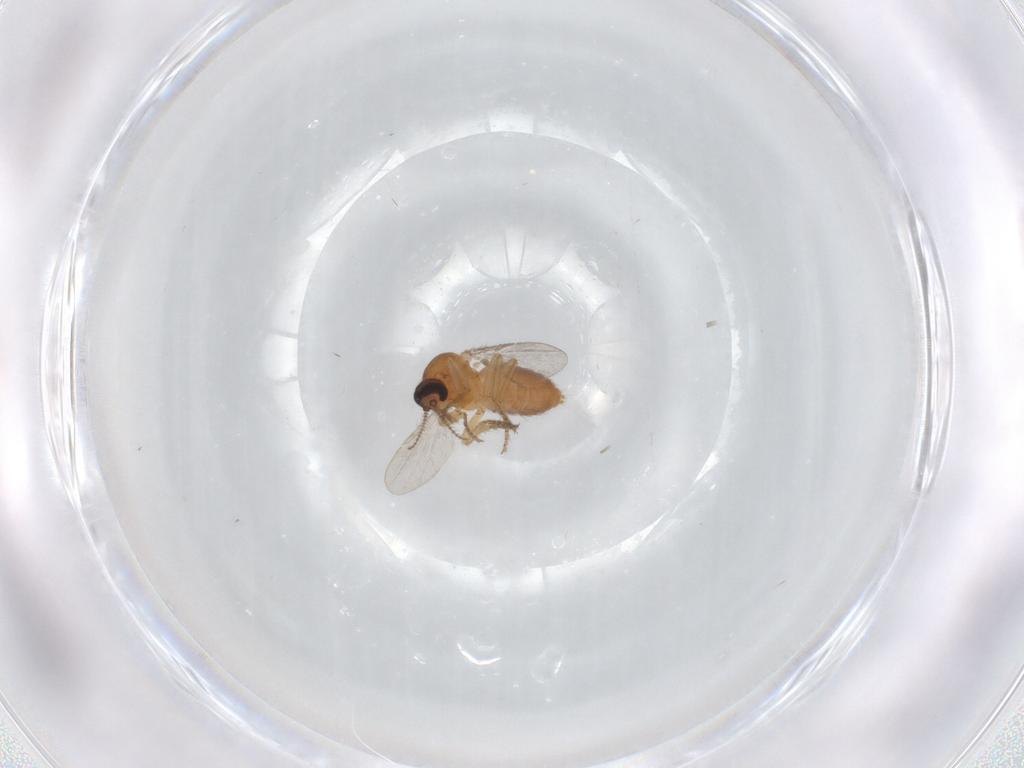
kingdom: Animalia
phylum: Arthropoda
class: Insecta
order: Diptera
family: Ceratopogonidae
